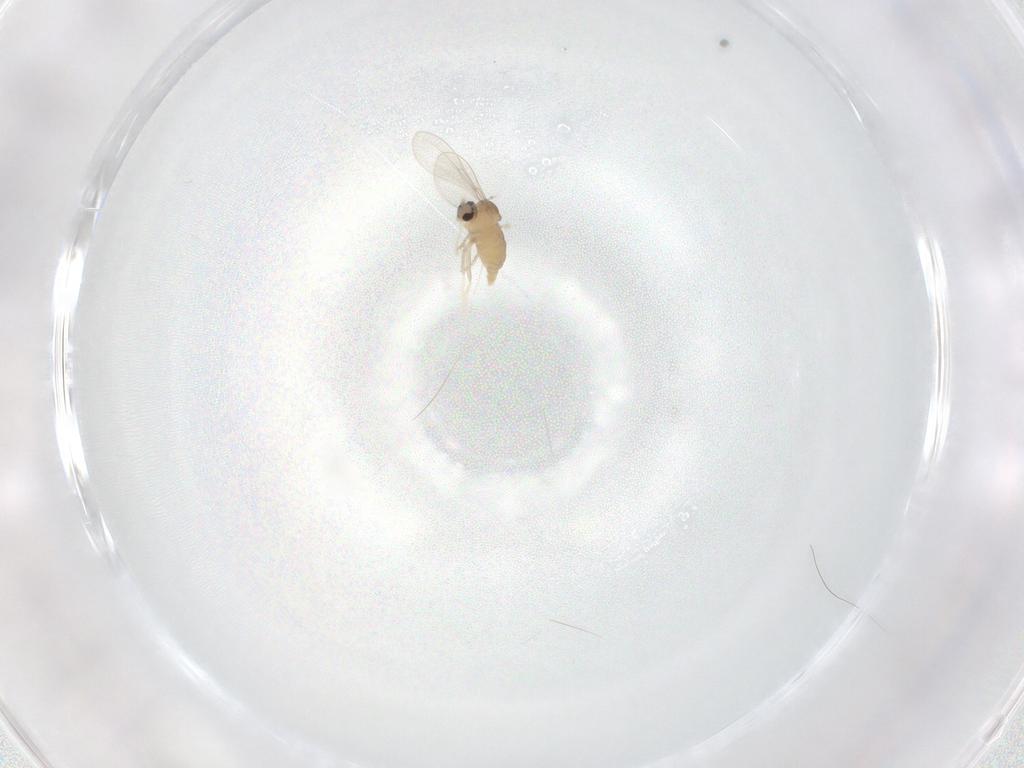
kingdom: Animalia
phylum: Arthropoda
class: Insecta
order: Diptera
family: Cecidomyiidae
